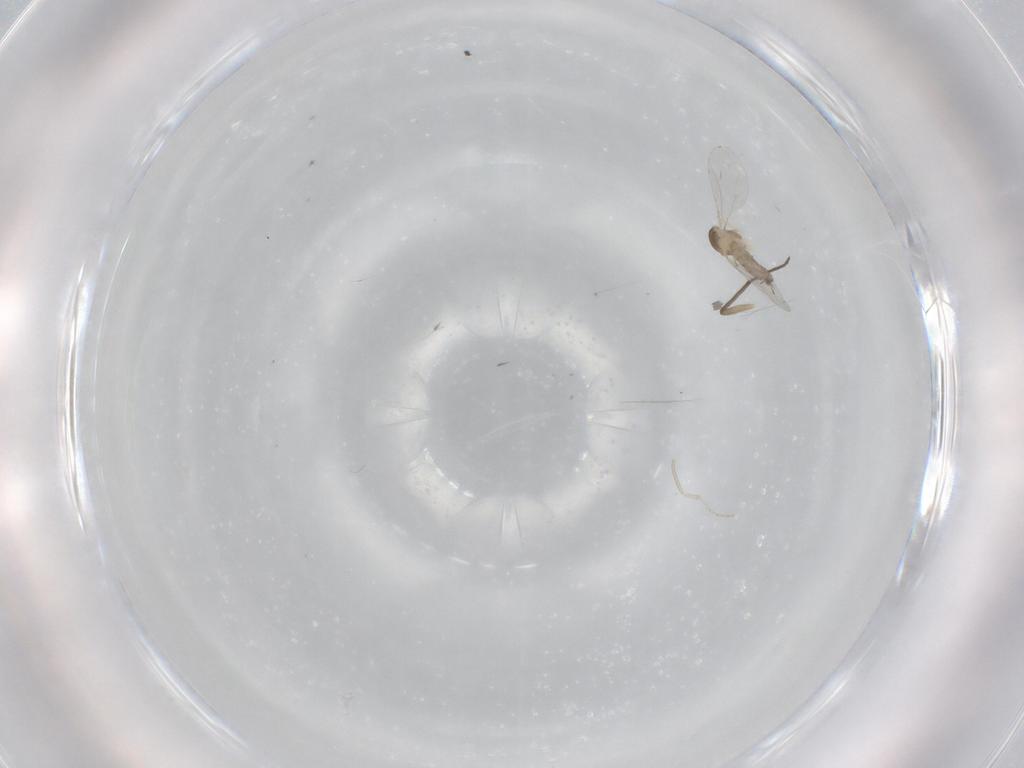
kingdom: Animalia
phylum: Arthropoda
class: Insecta
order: Diptera
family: Cecidomyiidae
